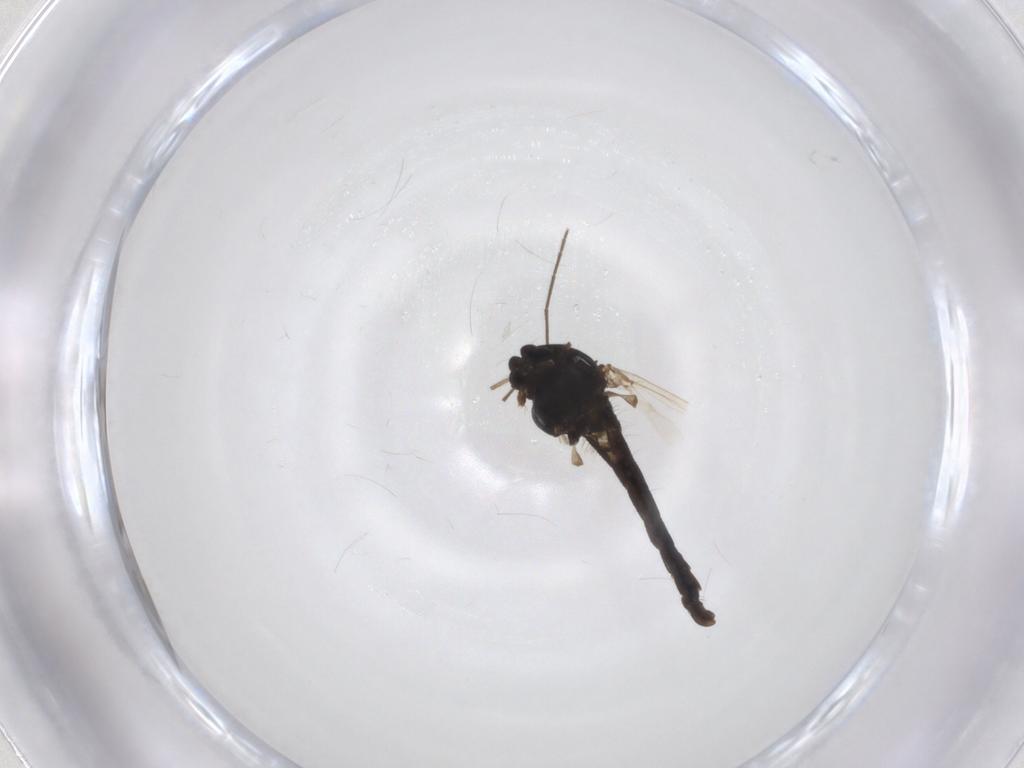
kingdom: Animalia
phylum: Arthropoda
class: Insecta
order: Diptera
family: Chironomidae
